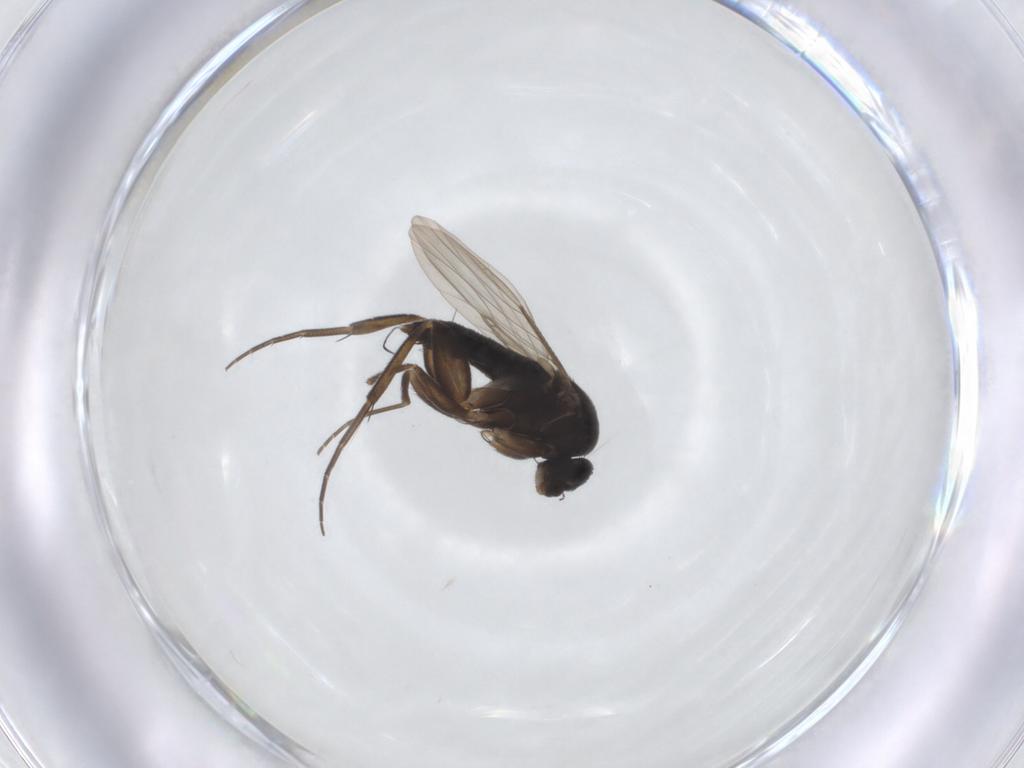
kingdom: Animalia
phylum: Arthropoda
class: Insecta
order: Diptera
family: Phoridae
